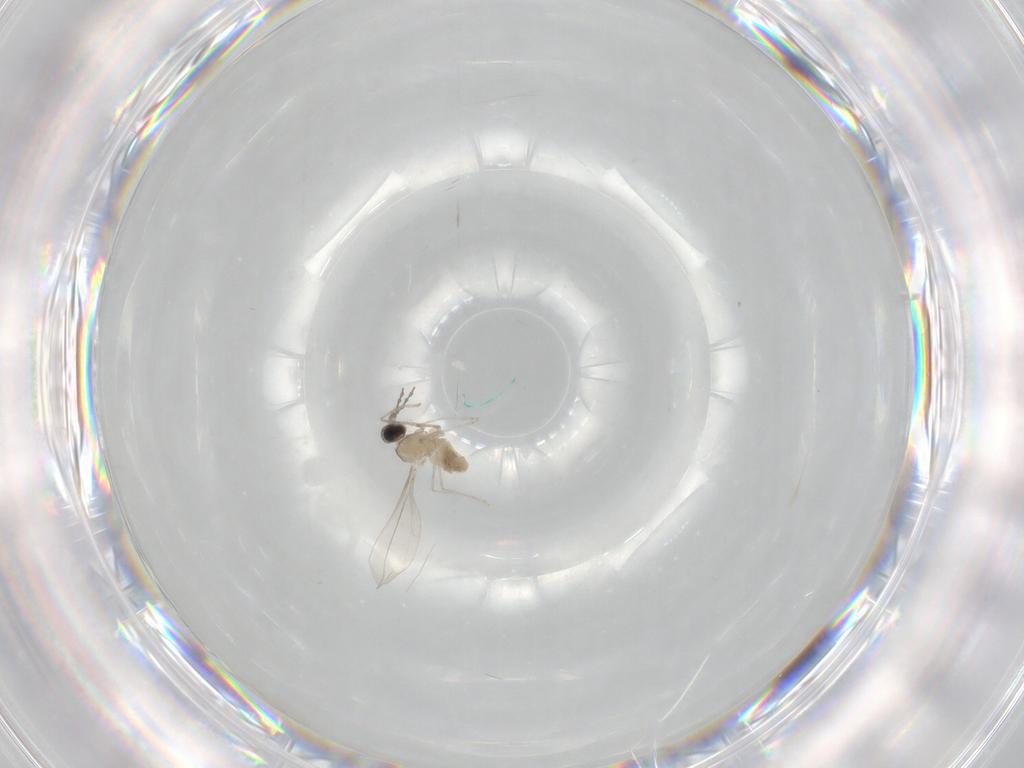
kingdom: Animalia
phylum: Arthropoda
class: Insecta
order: Diptera
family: Cecidomyiidae
